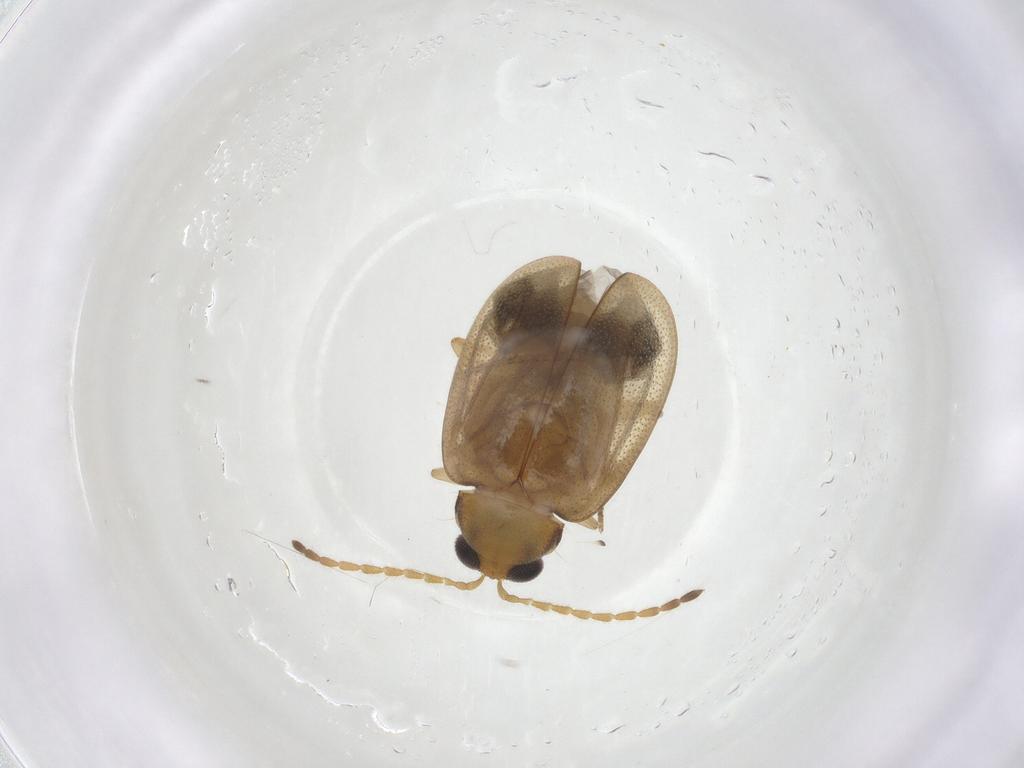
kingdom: Animalia
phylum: Arthropoda
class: Insecta
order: Coleoptera
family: Chrysomelidae
